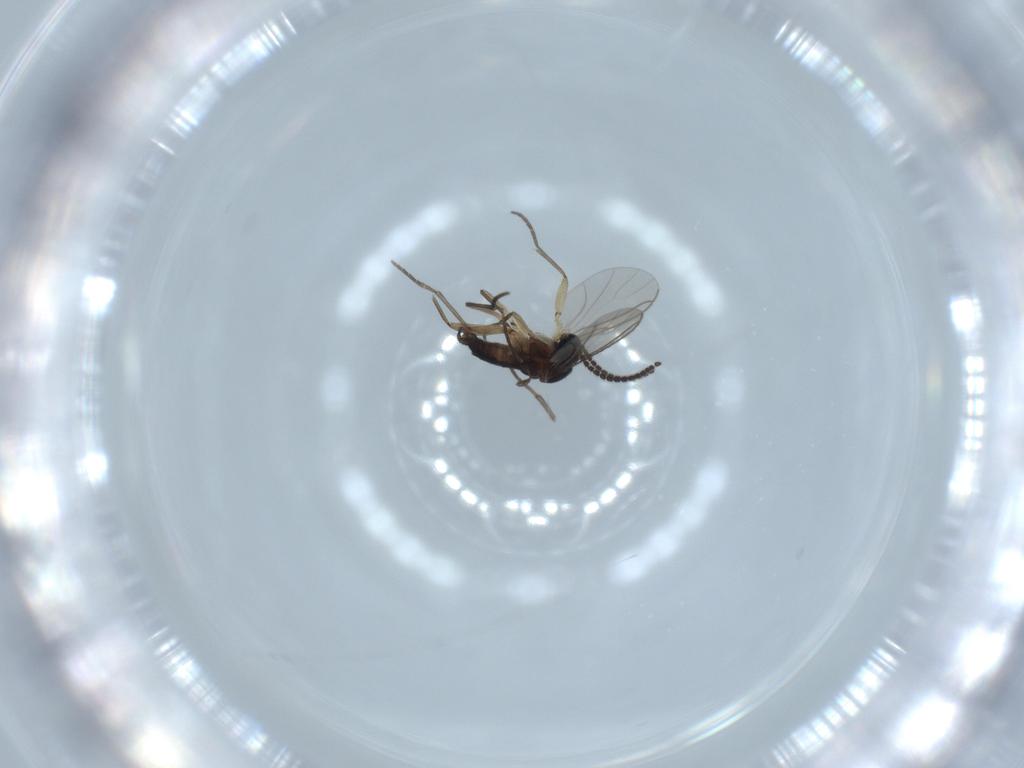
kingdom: Animalia
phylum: Arthropoda
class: Insecta
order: Diptera
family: Sciaridae
